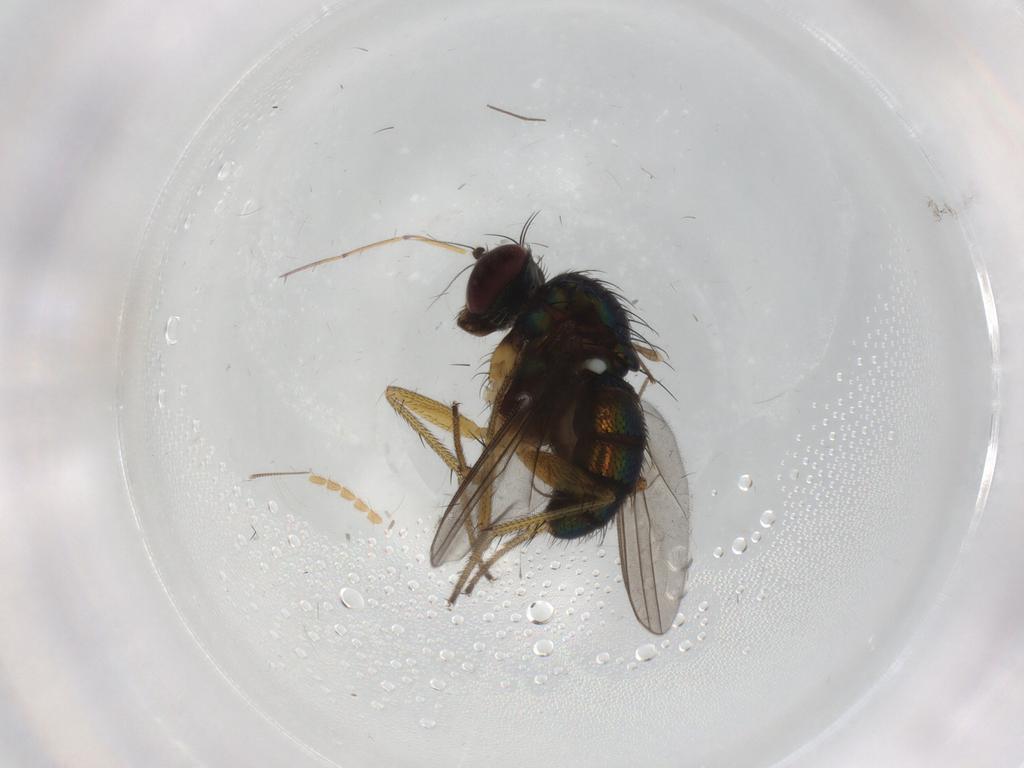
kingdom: Animalia
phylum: Arthropoda
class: Insecta
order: Diptera
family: Dolichopodidae
